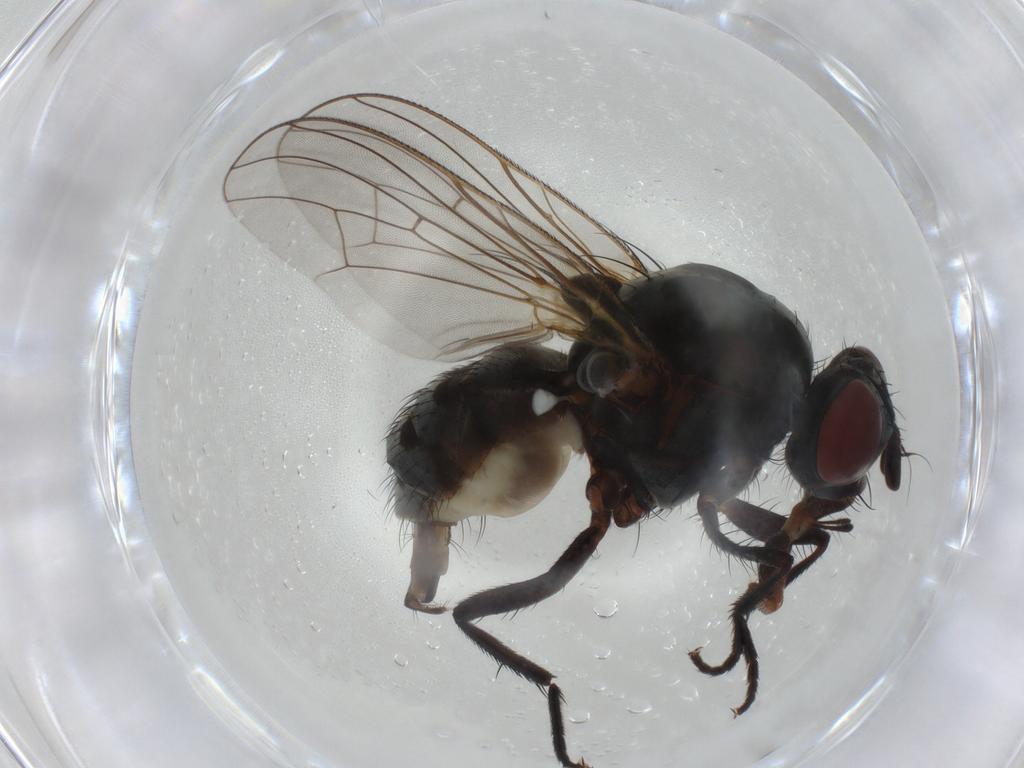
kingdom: Animalia
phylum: Arthropoda
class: Insecta
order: Diptera
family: Anthomyiidae
